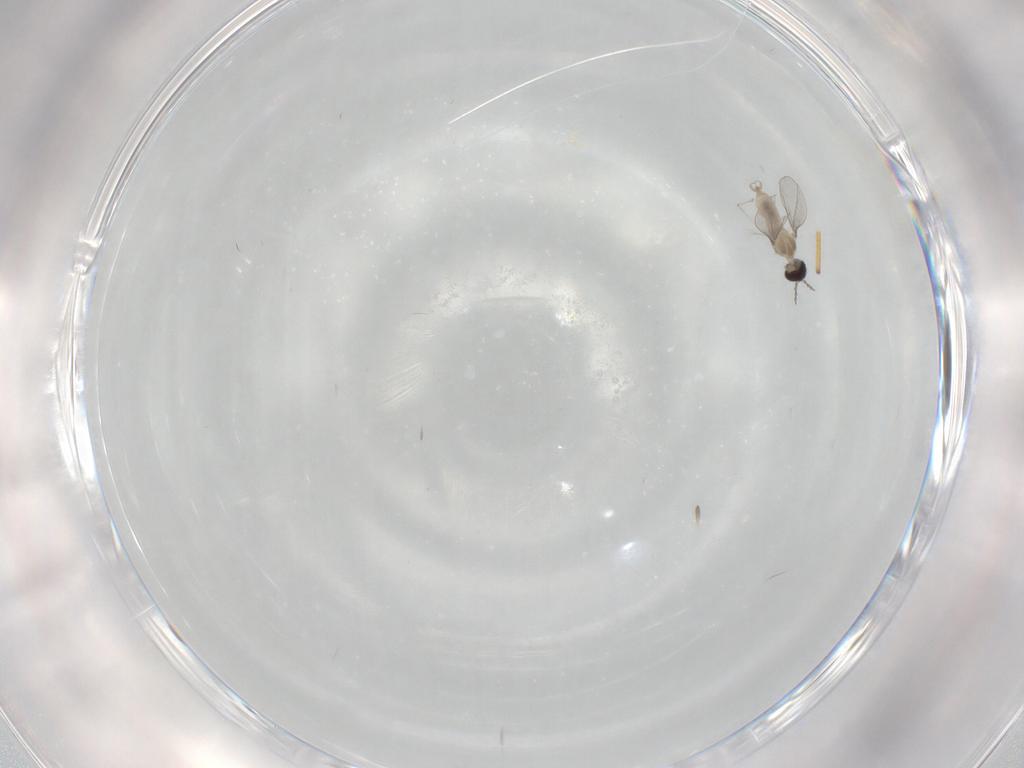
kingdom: Animalia
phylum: Arthropoda
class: Insecta
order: Diptera
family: Cecidomyiidae
